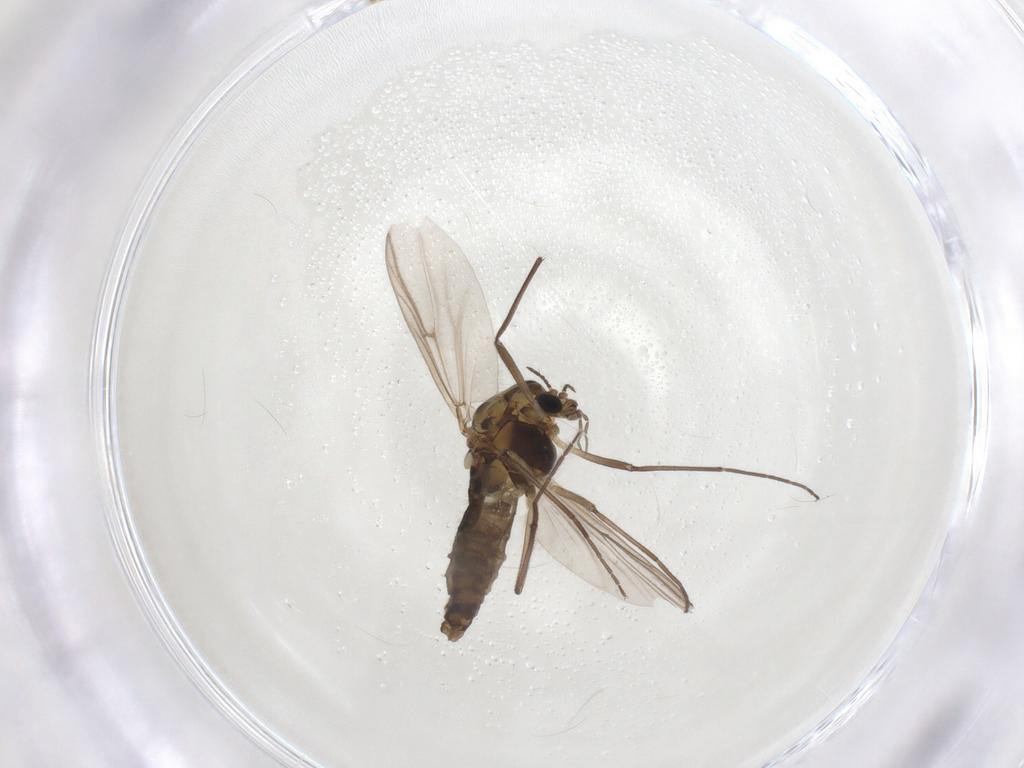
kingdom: Animalia
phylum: Arthropoda
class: Insecta
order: Diptera
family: Chironomidae
